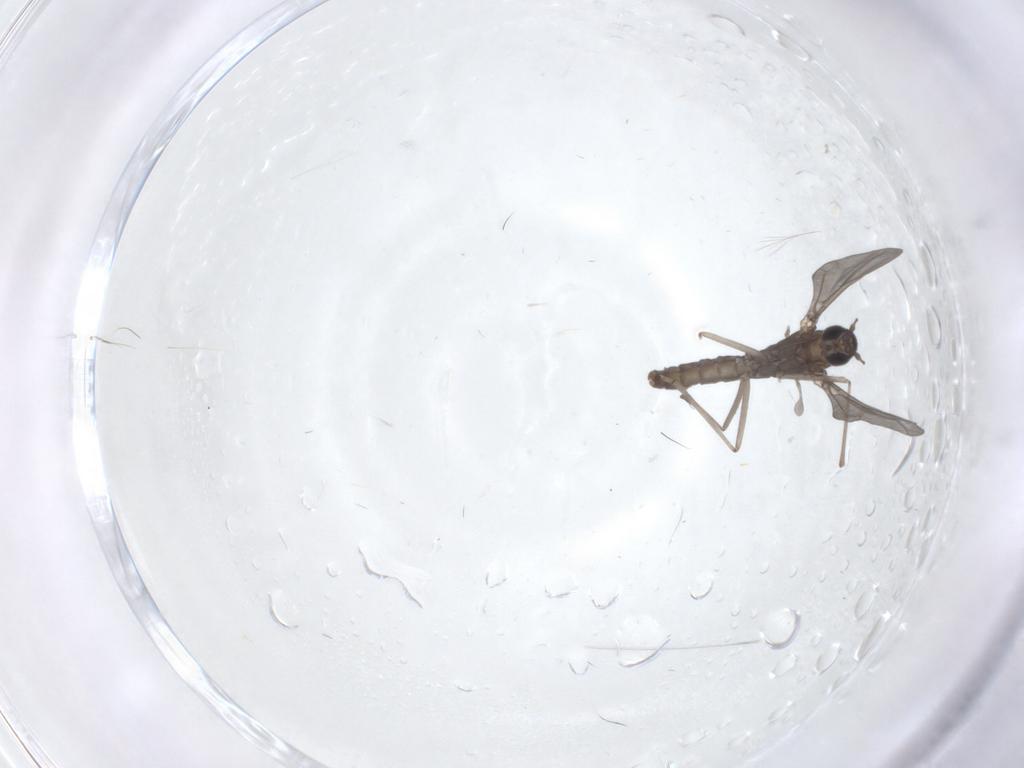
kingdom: Animalia
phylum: Arthropoda
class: Insecta
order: Diptera
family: Cecidomyiidae
